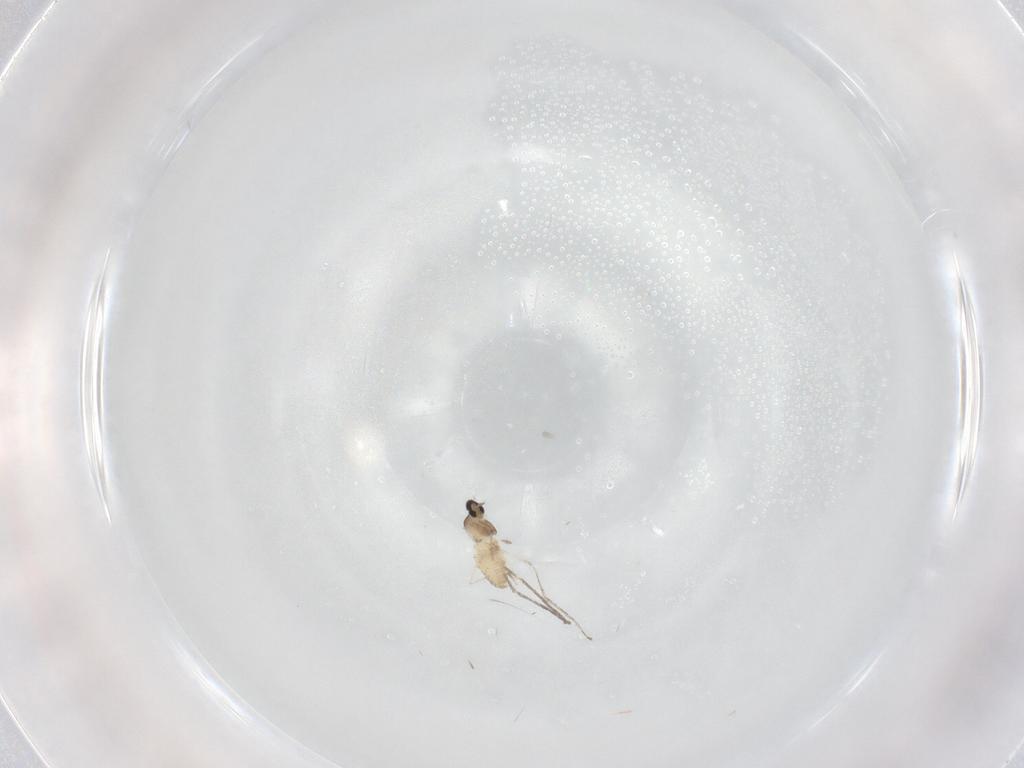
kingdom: Animalia
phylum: Arthropoda
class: Insecta
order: Diptera
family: Cecidomyiidae
